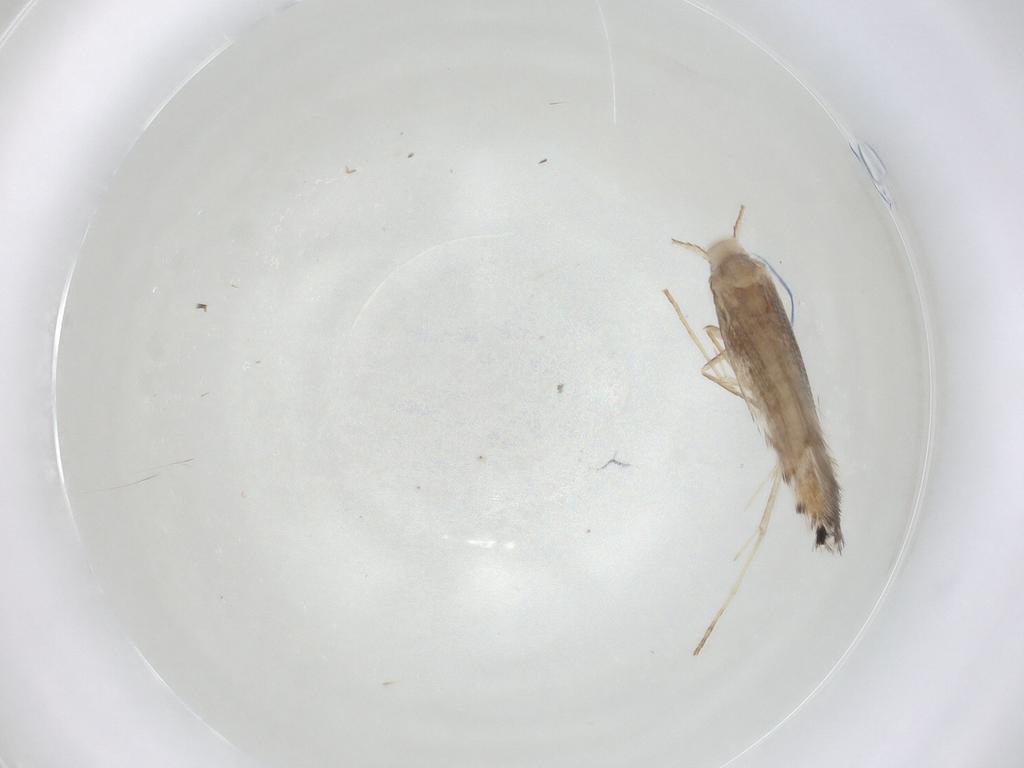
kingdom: Animalia
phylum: Arthropoda
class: Insecta
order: Lepidoptera
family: Gracillariidae
